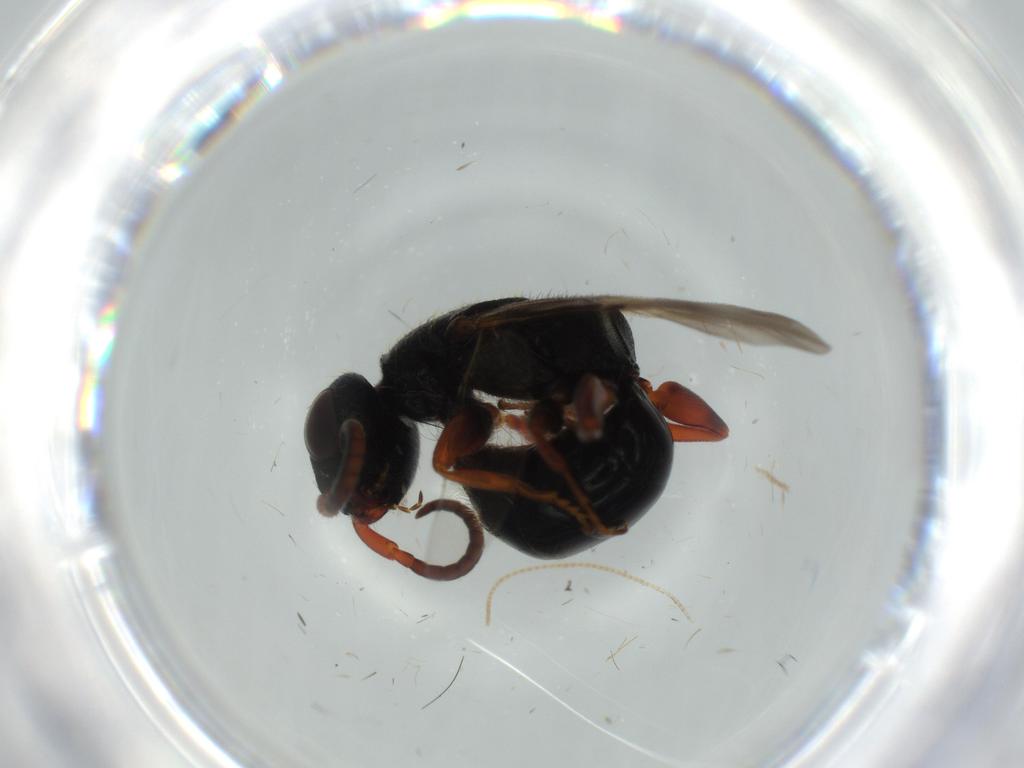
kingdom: Animalia
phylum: Arthropoda
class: Insecta
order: Hymenoptera
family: Bethylidae
